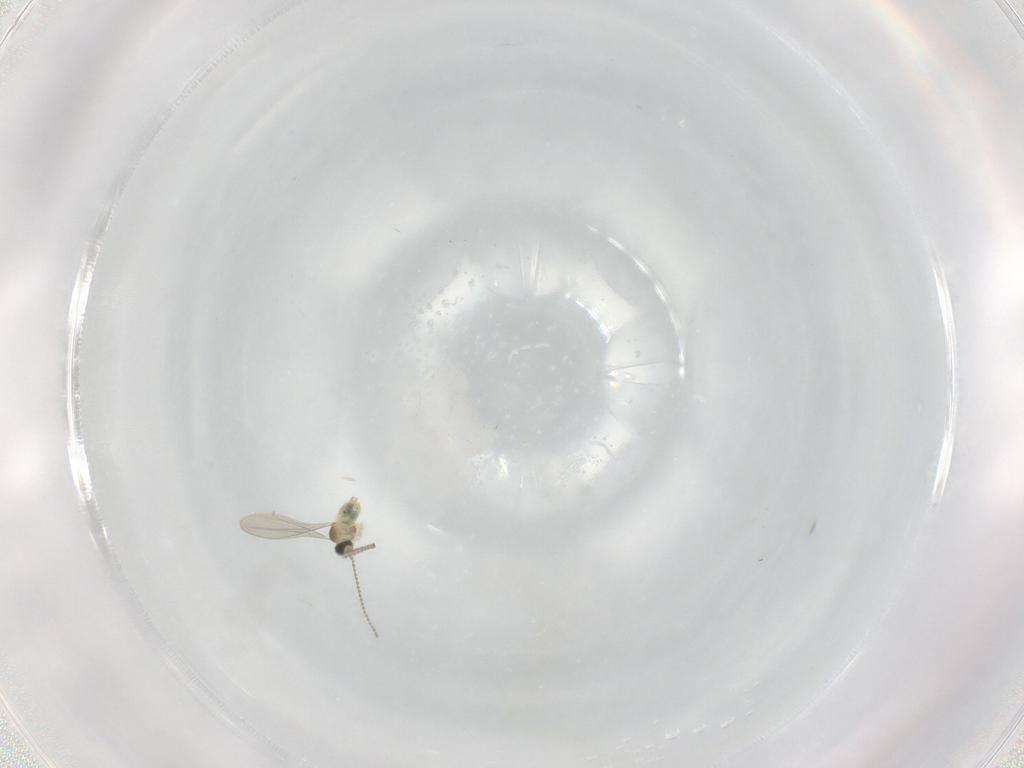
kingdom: Animalia
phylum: Arthropoda
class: Insecta
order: Diptera
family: Cecidomyiidae
